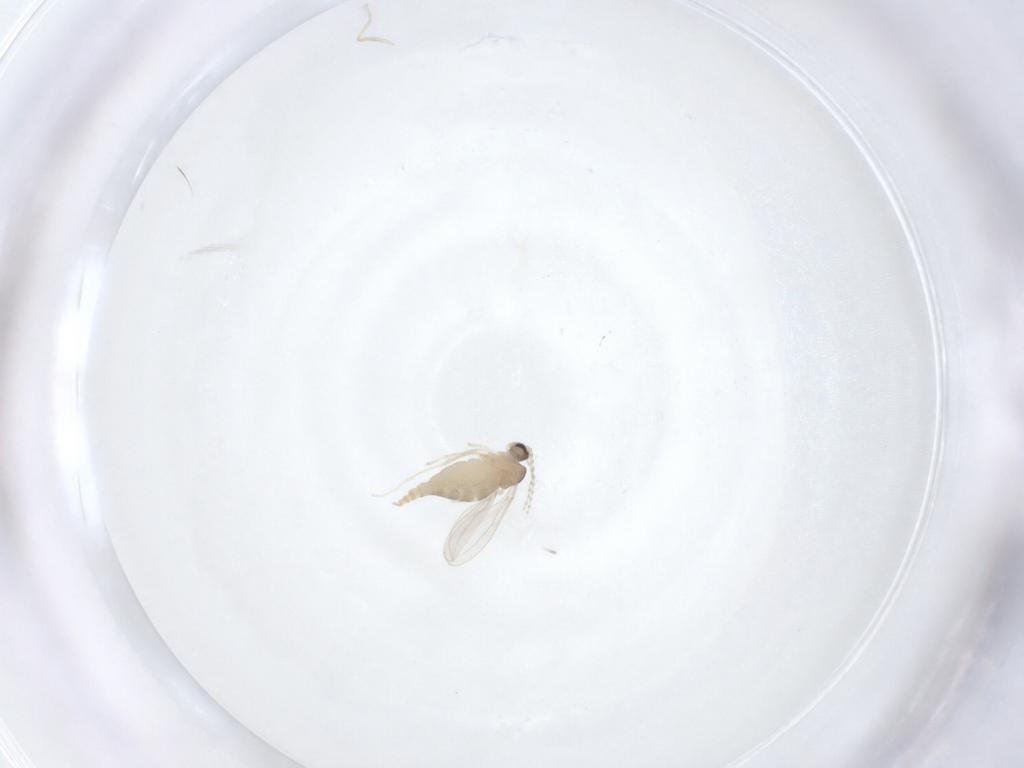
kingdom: Animalia
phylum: Arthropoda
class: Insecta
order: Diptera
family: Cecidomyiidae
